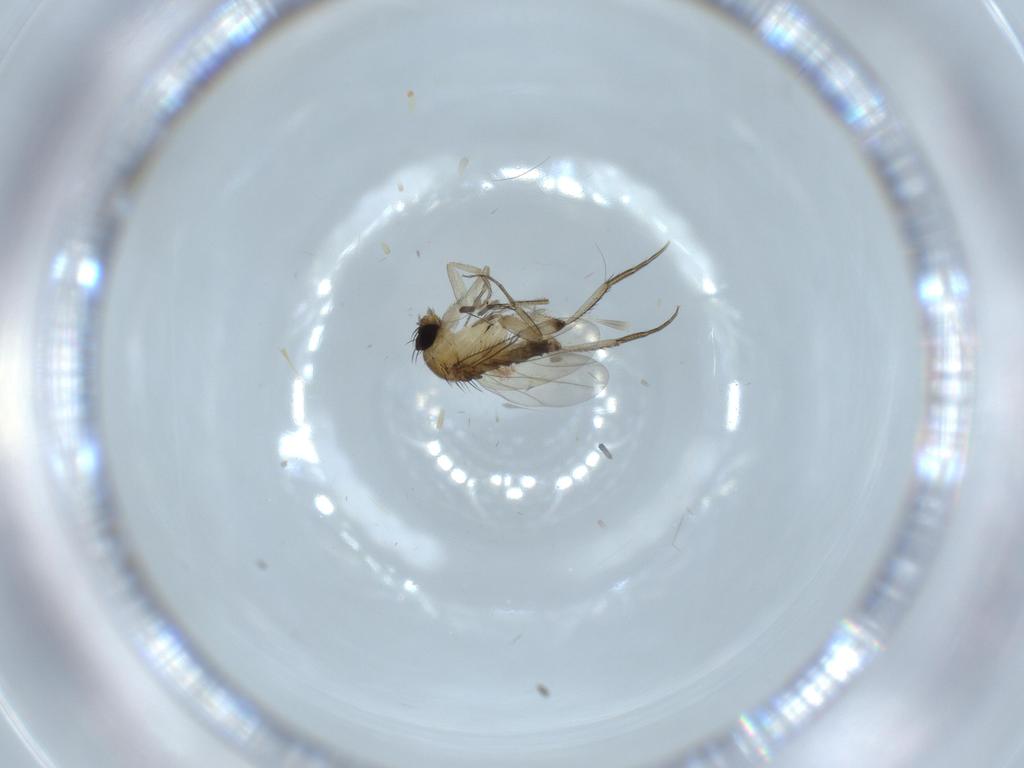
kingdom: Animalia
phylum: Arthropoda
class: Insecta
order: Diptera
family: Phoridae
